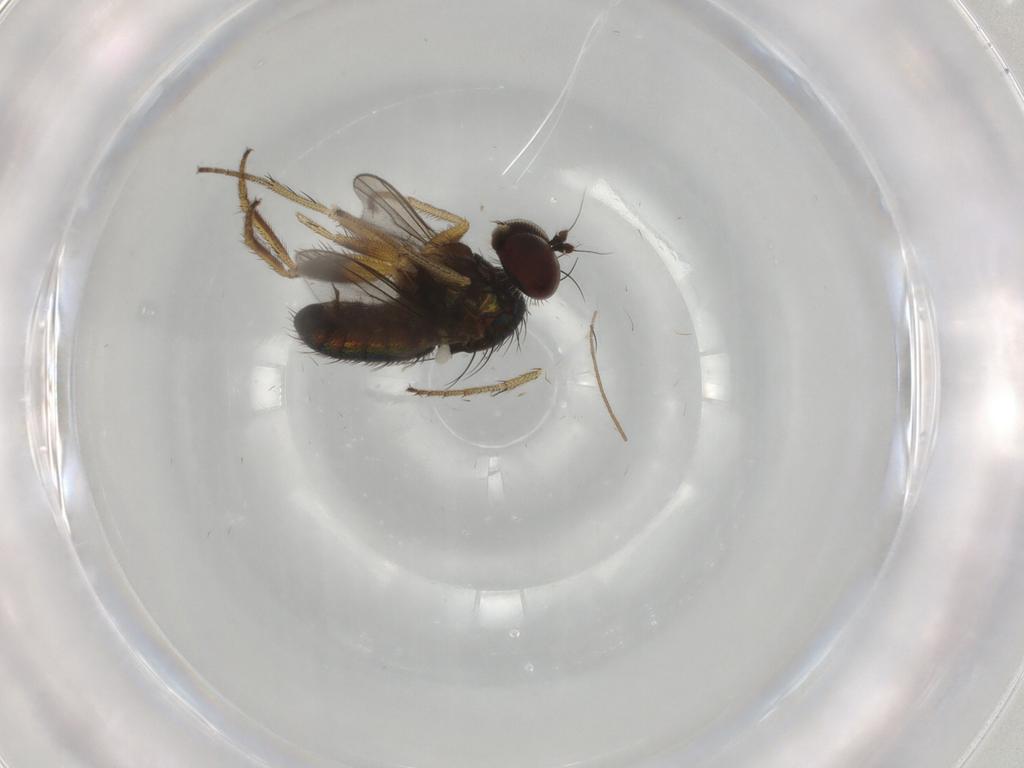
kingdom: Animalia
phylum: Arthropoda
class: Insecta
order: Diptera
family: Dolichopodidae
